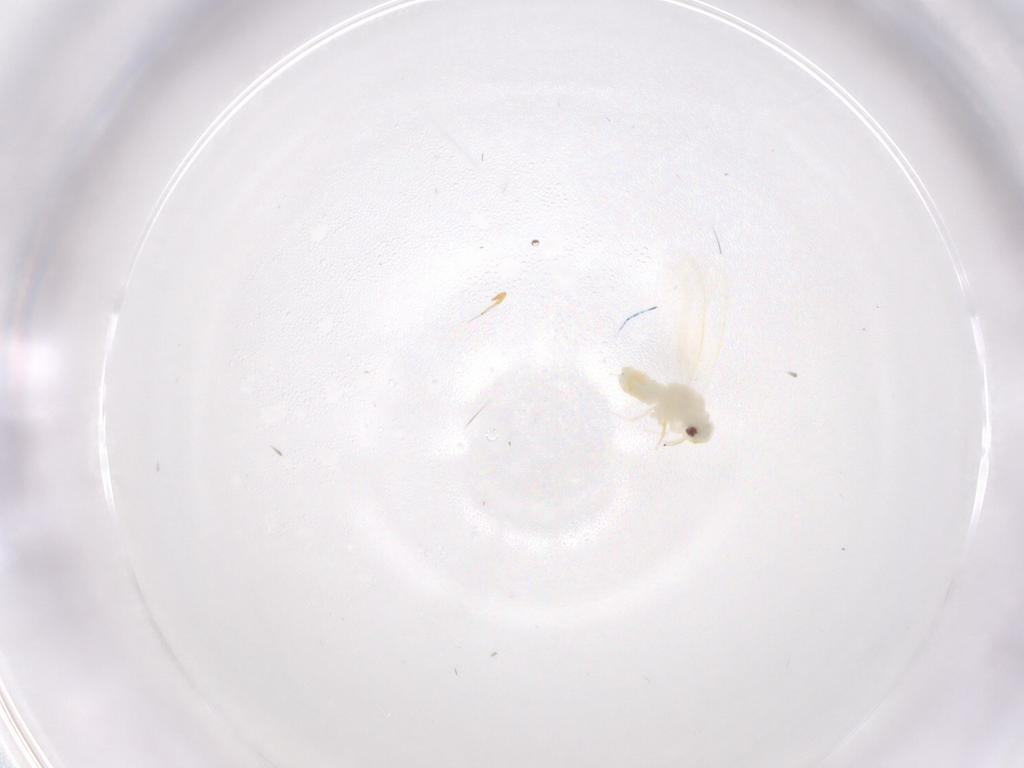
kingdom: Animalia
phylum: Arthropoda
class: Insecta
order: Hemiptera
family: Aleyrodidae
